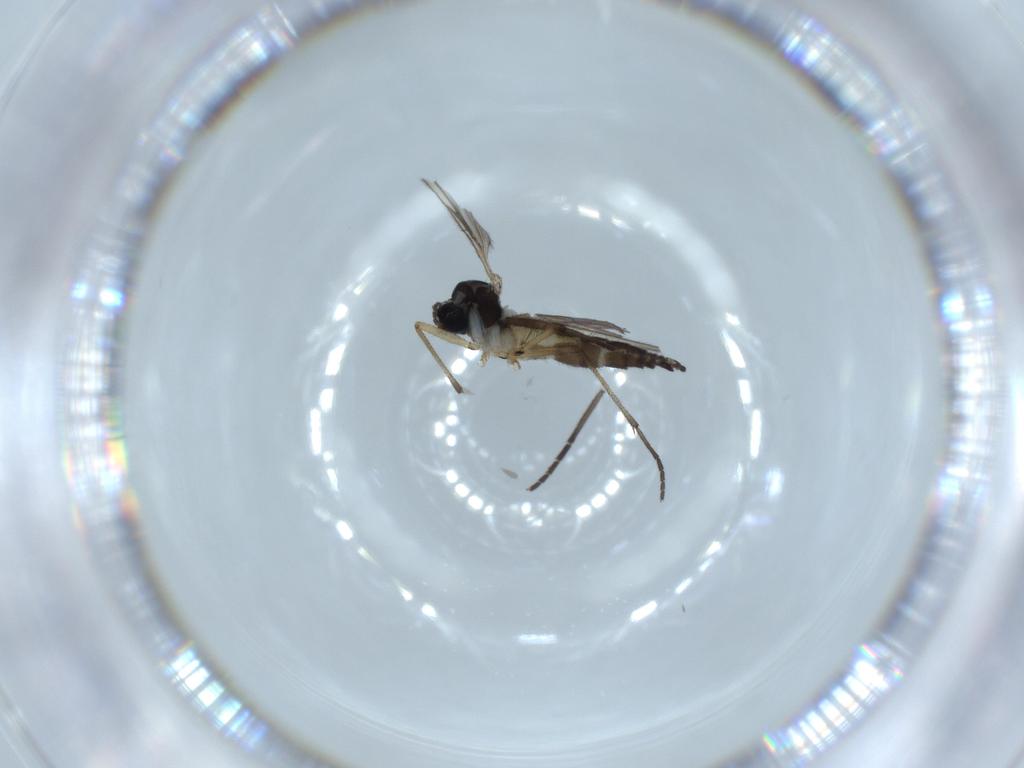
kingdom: Animalia
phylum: Arthropoda
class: Insecta
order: Diptera
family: Sciaridae
